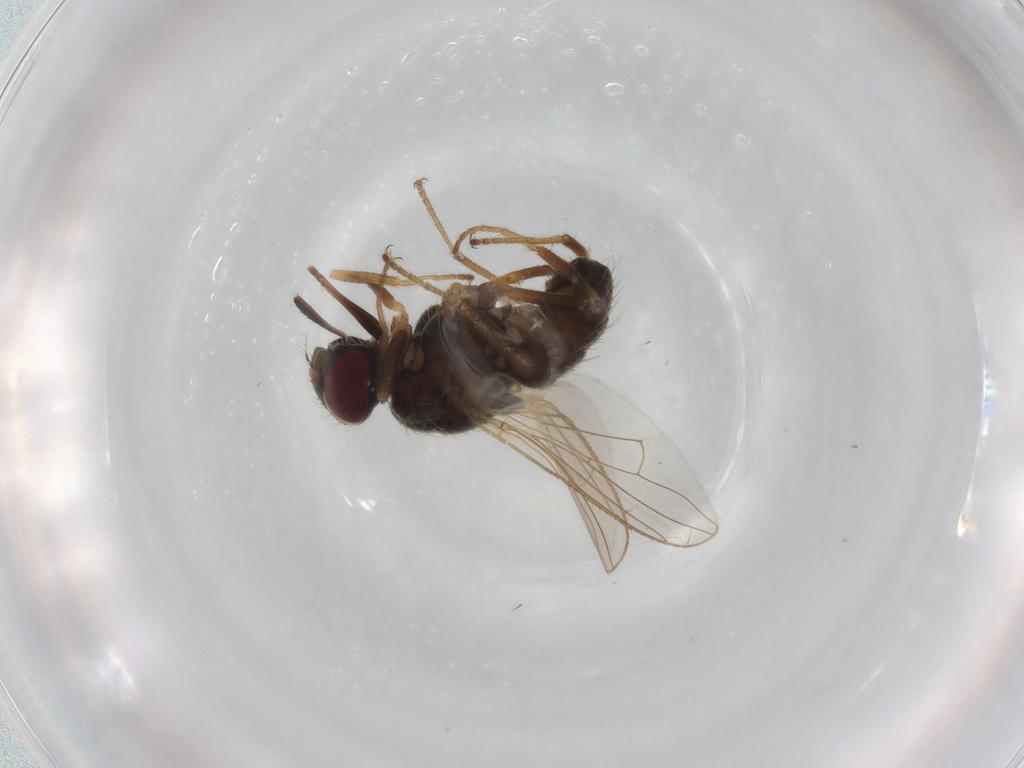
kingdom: Animalia
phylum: Arthropoda
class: Insecta
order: Diptera
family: Muscidae
